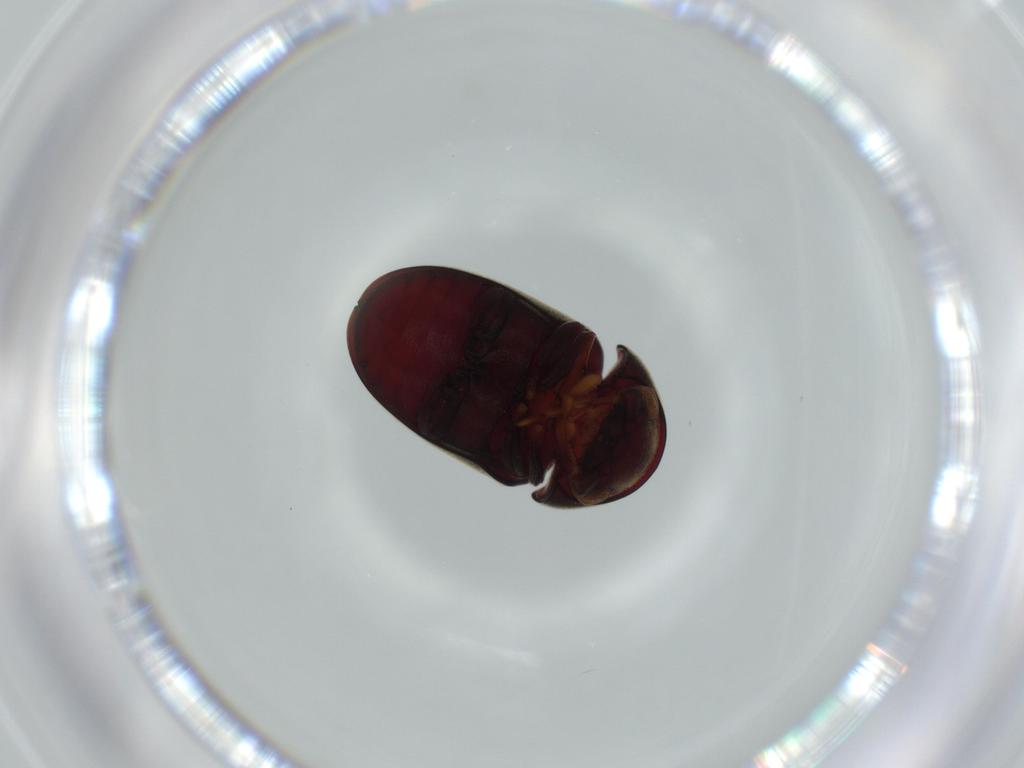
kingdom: Animalia
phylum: Arthropoda
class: Insecta
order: Coleoptera
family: Ptinidae
